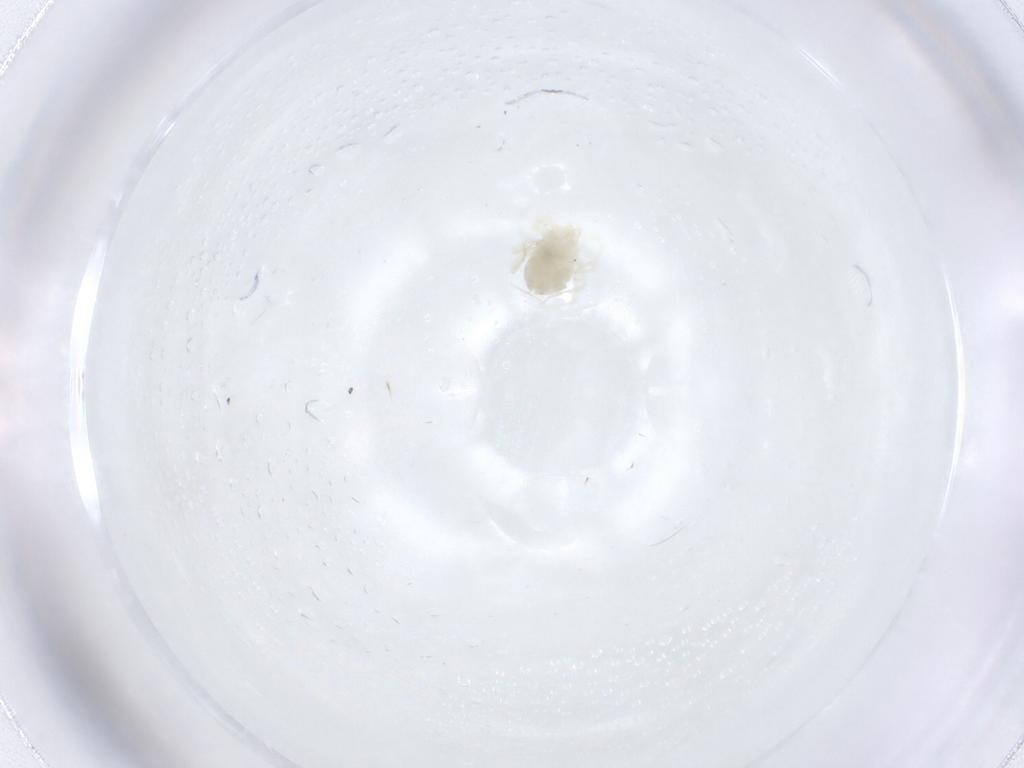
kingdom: Animalia
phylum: Arthropoda
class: Arachnida
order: Trombidiformes
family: Anystidae
